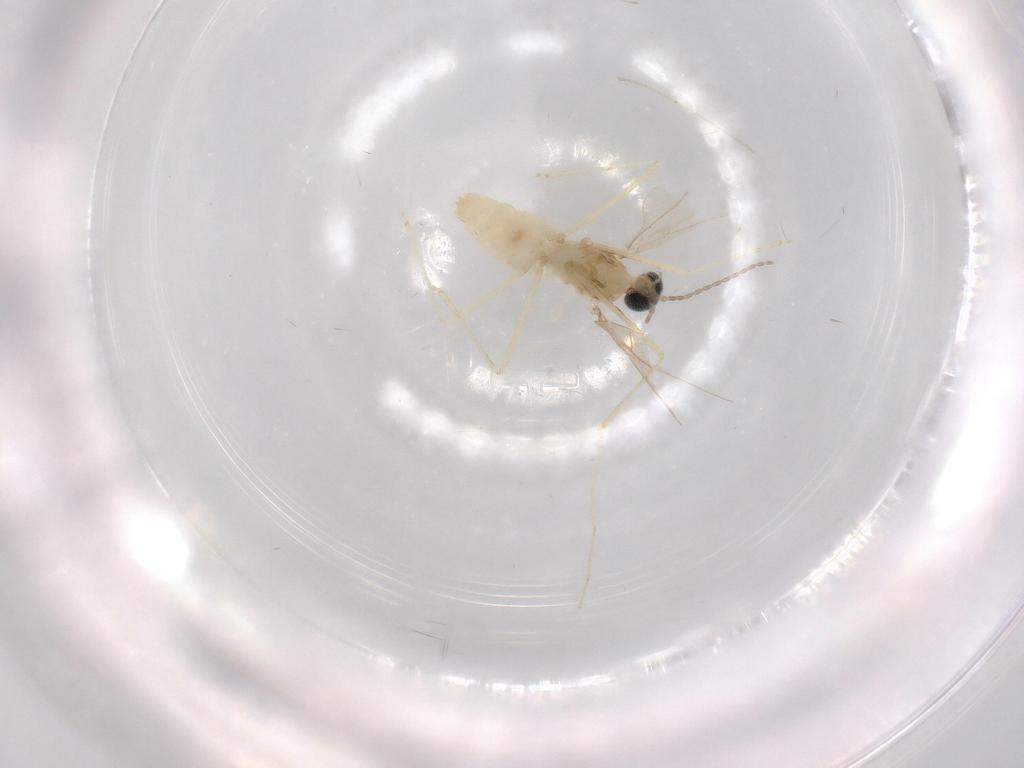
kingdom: Animalia
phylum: Arthropoda
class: Insecta
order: Diptera
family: Cecidomyiidae
